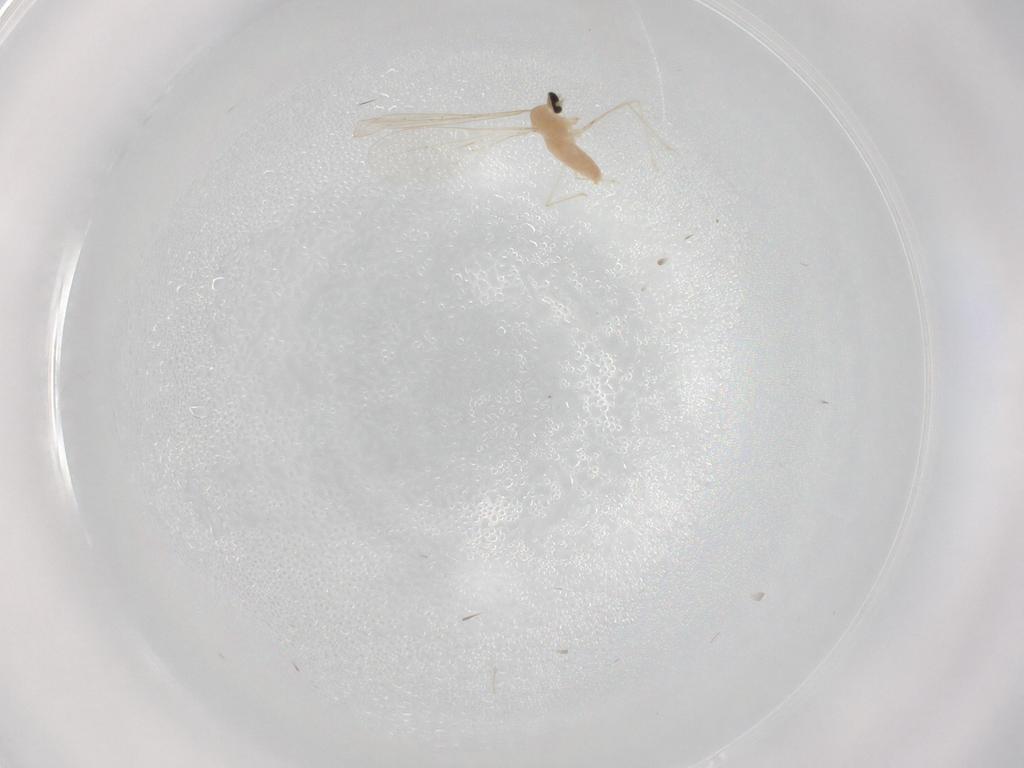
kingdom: Animalia
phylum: Arthropoda
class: Insecta
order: Diptera
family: Cecidomyiidae
